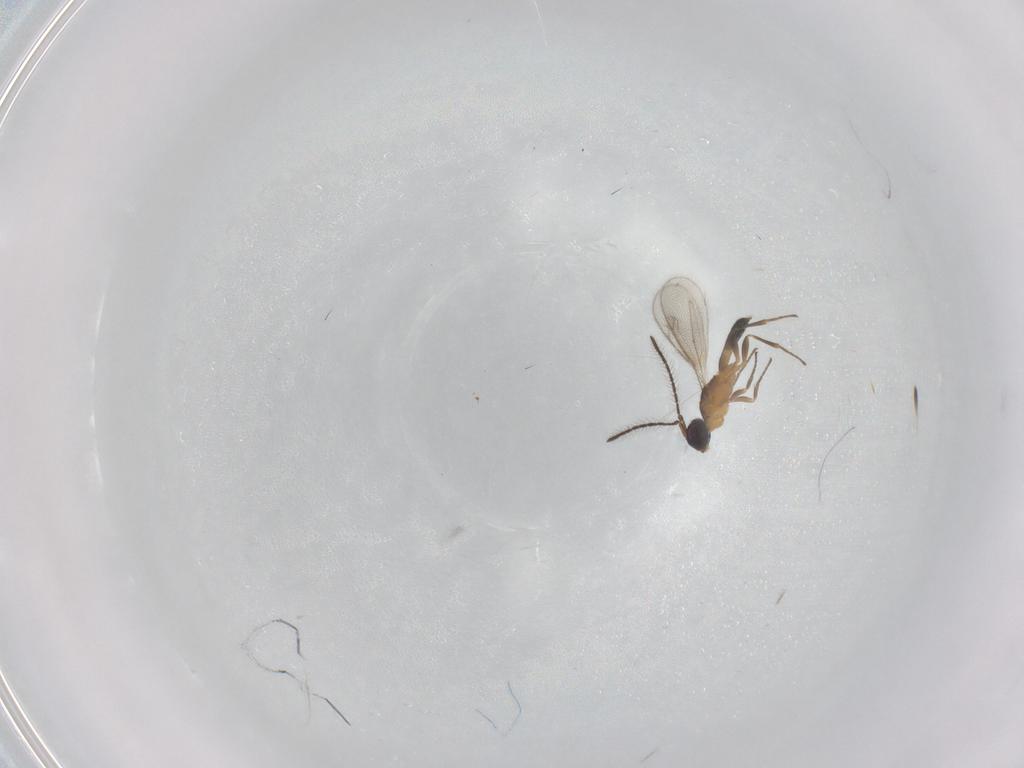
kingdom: Animalia
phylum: Arthropoda
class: Insecta
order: Hymenoptera
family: Eupelmidae
